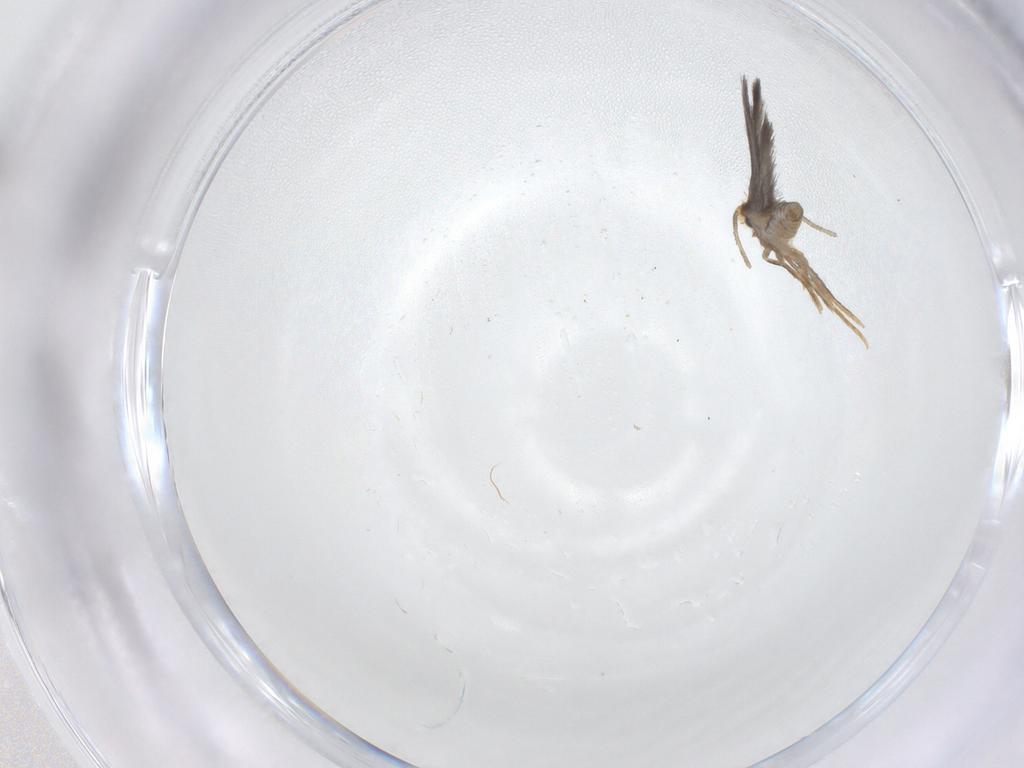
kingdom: Animalia
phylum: Arthropoda
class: Insecta
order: Lepidoptera
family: Nepticulidae
